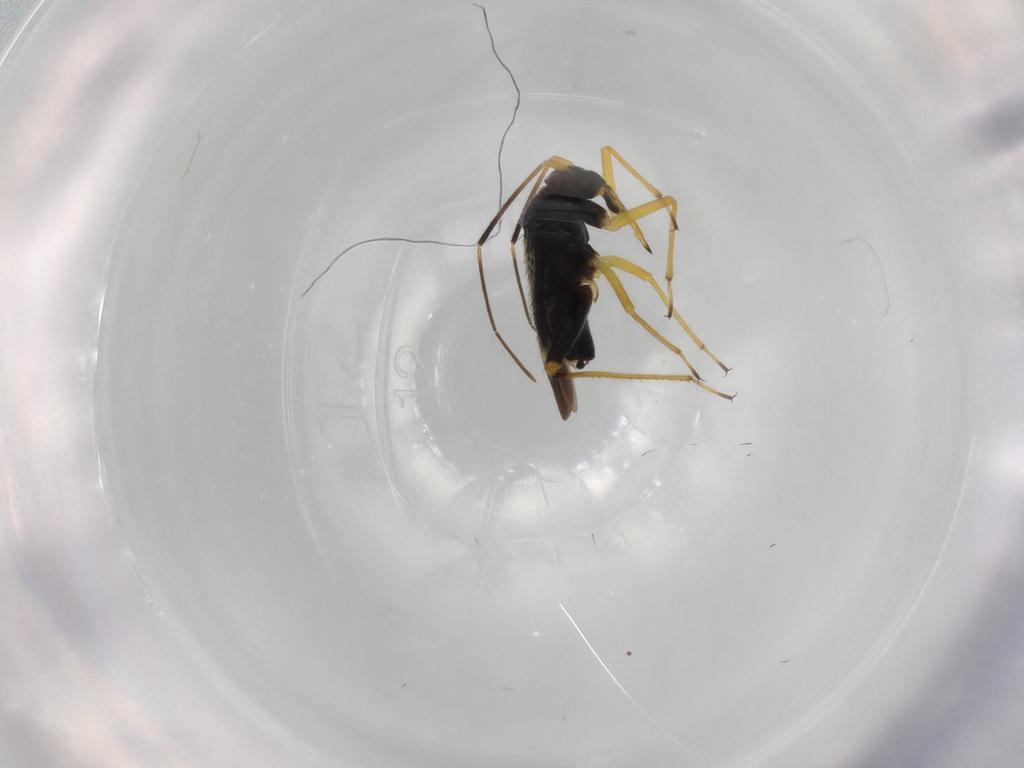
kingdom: Animalia
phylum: Arthropoda
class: Insecta
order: Hemiptera
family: Miridae
